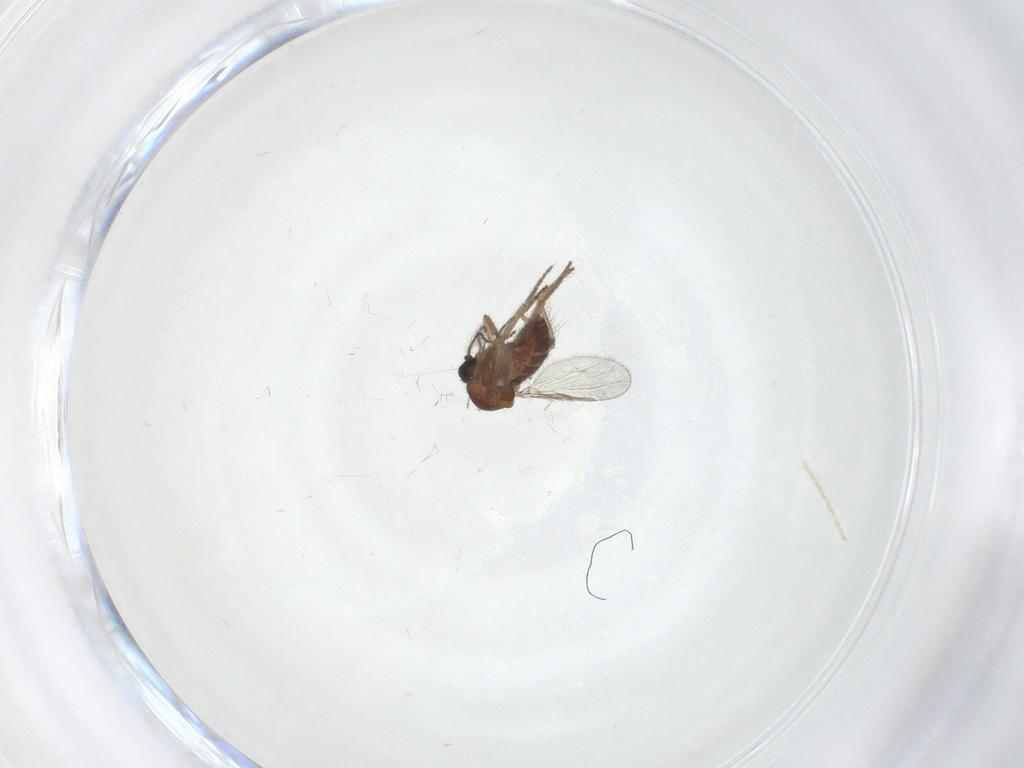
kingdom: Animalia
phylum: Arthropoda
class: Insecta
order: Diptera
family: Ceratopogonidae
